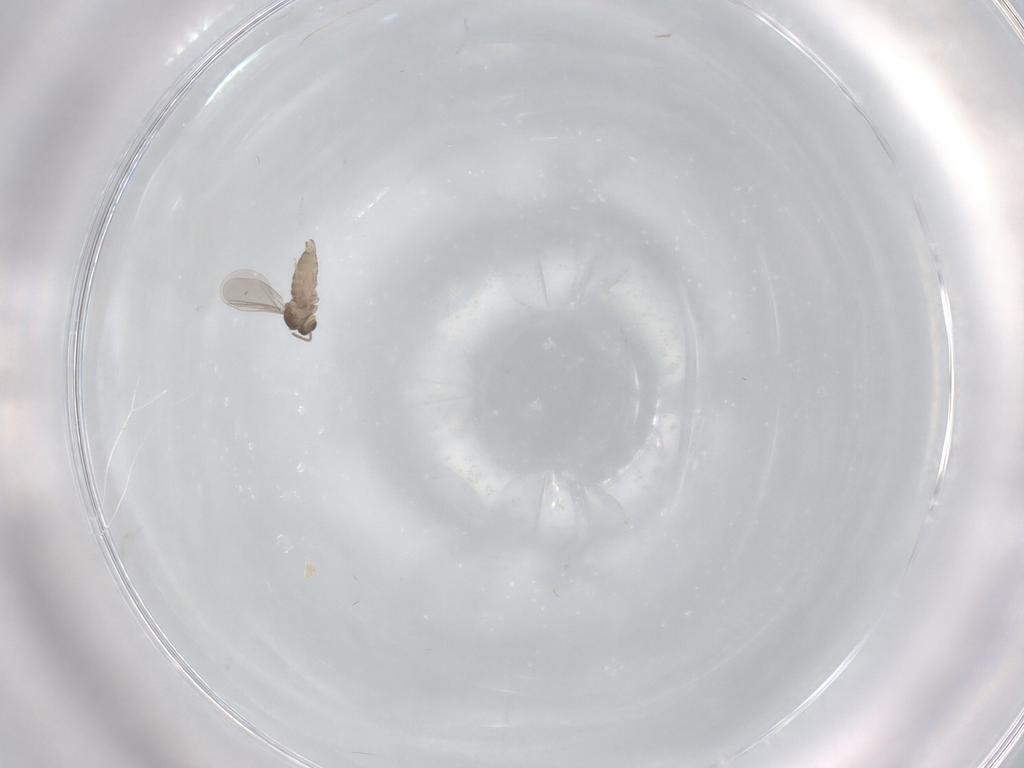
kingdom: Animalia
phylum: Arthropoda
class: Insecta
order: Diptera
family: Cecidomyiidae
